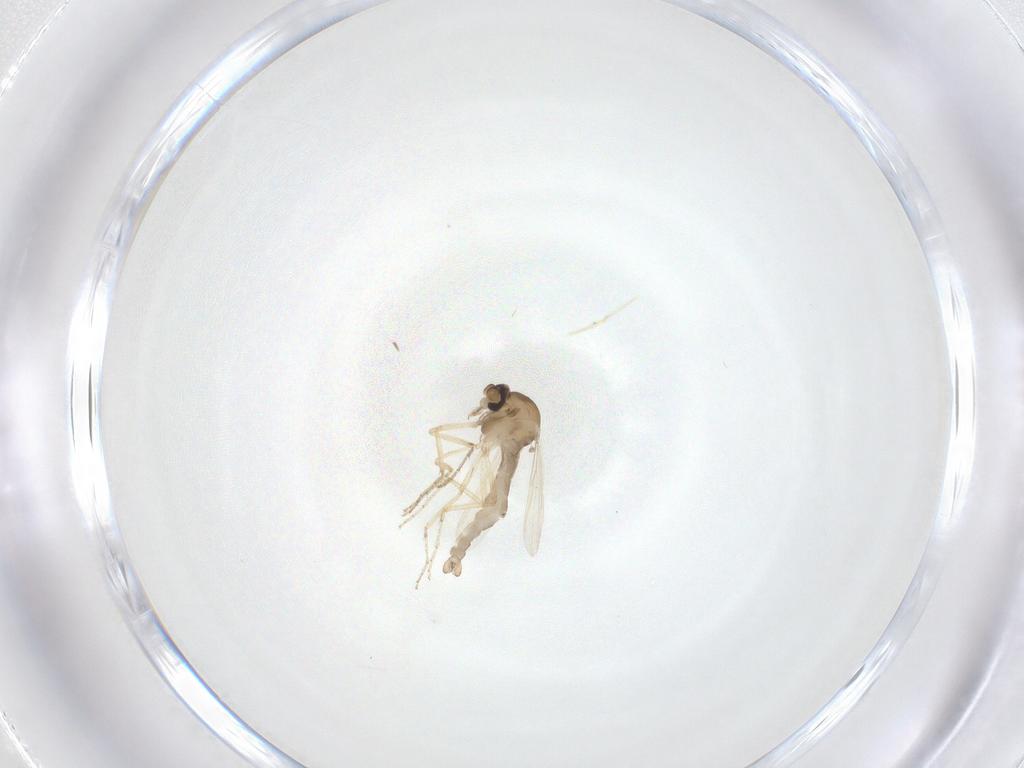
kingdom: Animalia
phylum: Arthropoda
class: Insecta
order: Diptera
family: Ceratopogonidae
